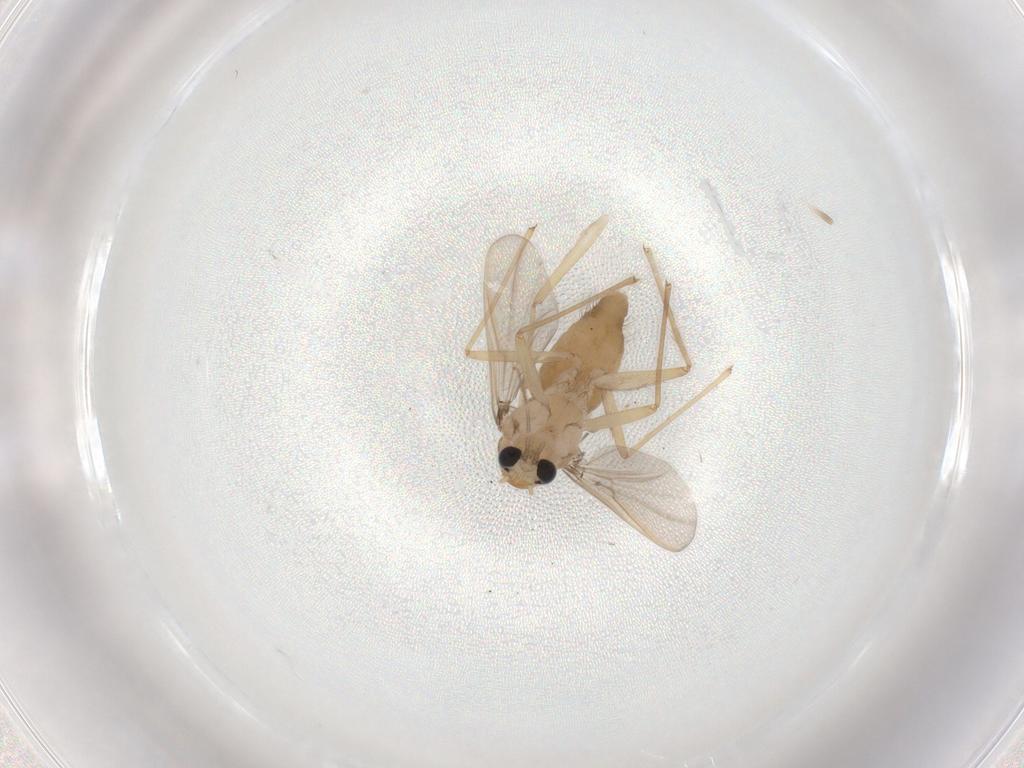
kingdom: Animalia
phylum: Arthropoda
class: Insecta
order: Diptera
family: Chironomidae
